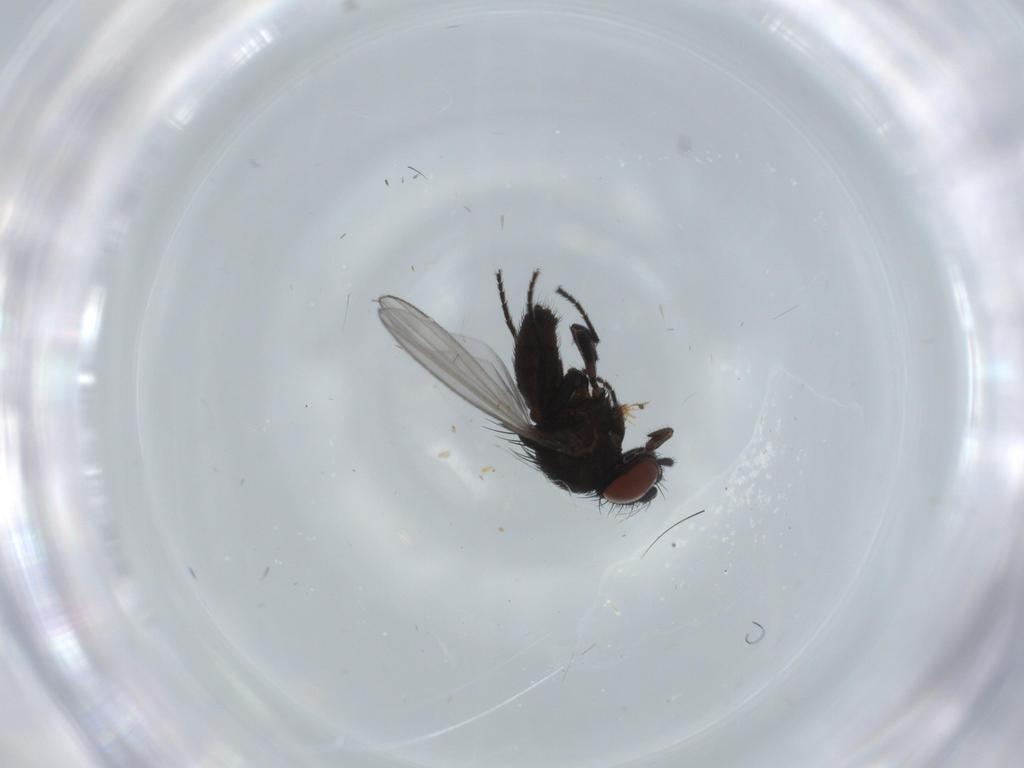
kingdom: Animalia
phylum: Arthropoda
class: Insecta
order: Diptera
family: Milichiidae
